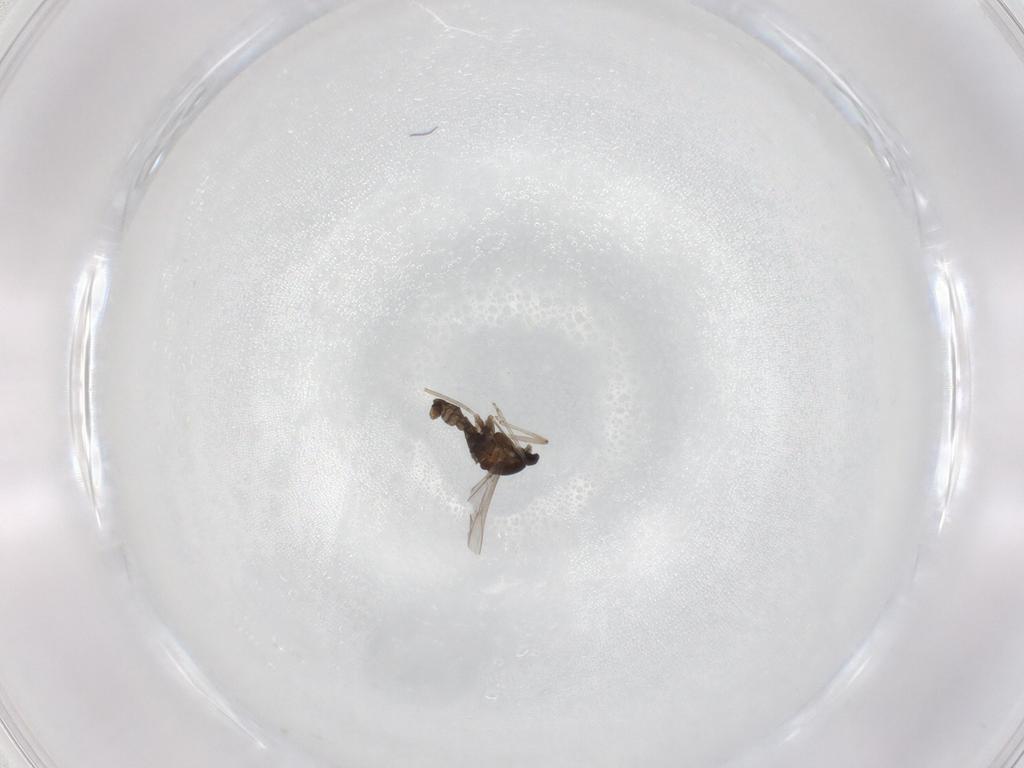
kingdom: Animalia
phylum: Arthropoda
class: Insecta
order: Diptera
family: Cecidomyiidae
